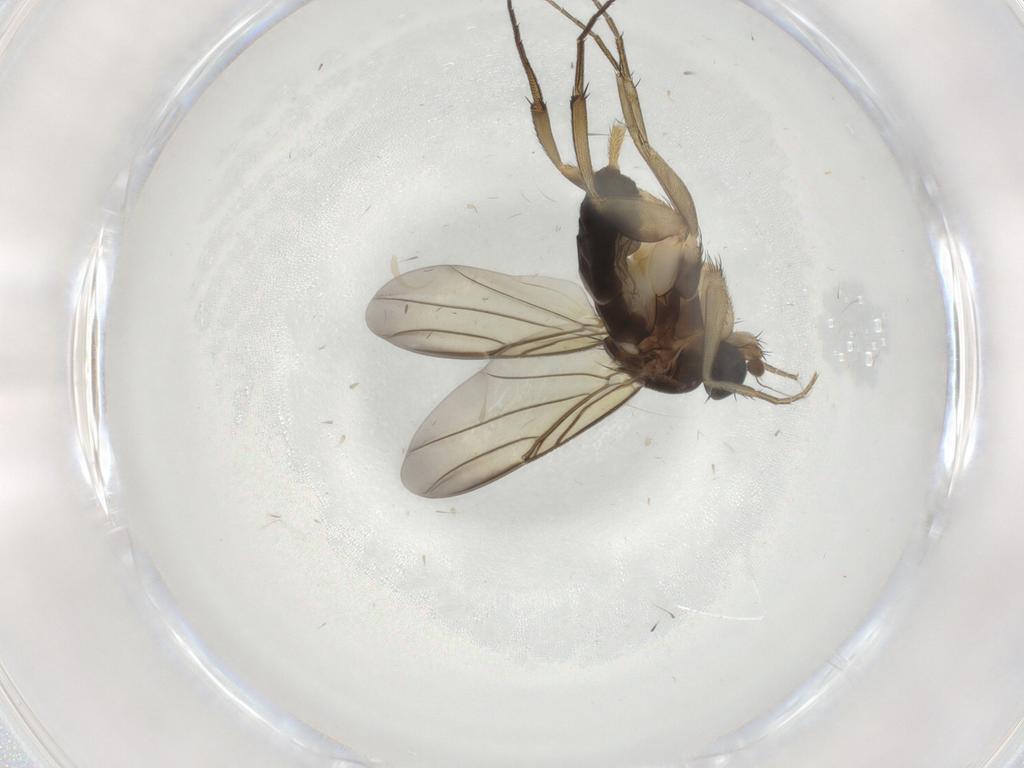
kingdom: Animalia
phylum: Arthropoda
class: Insecta
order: Diptera
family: Phoridae
